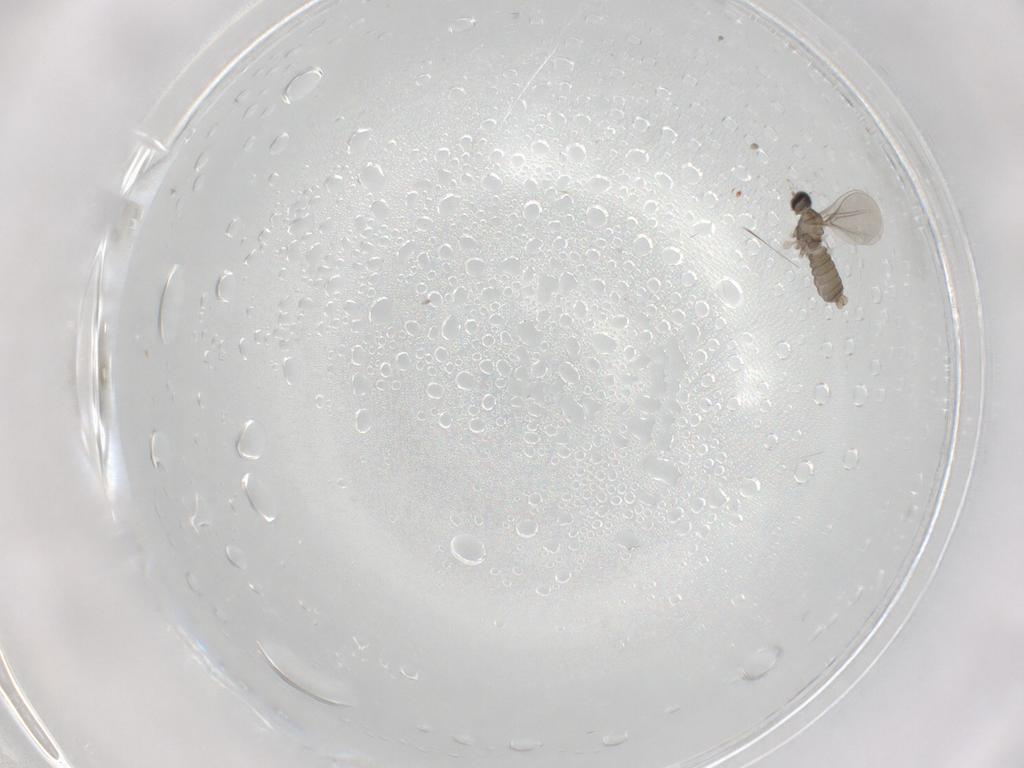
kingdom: Animalia
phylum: Arthropoda
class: Insecta
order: Diptera
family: Cecidomyiidae
